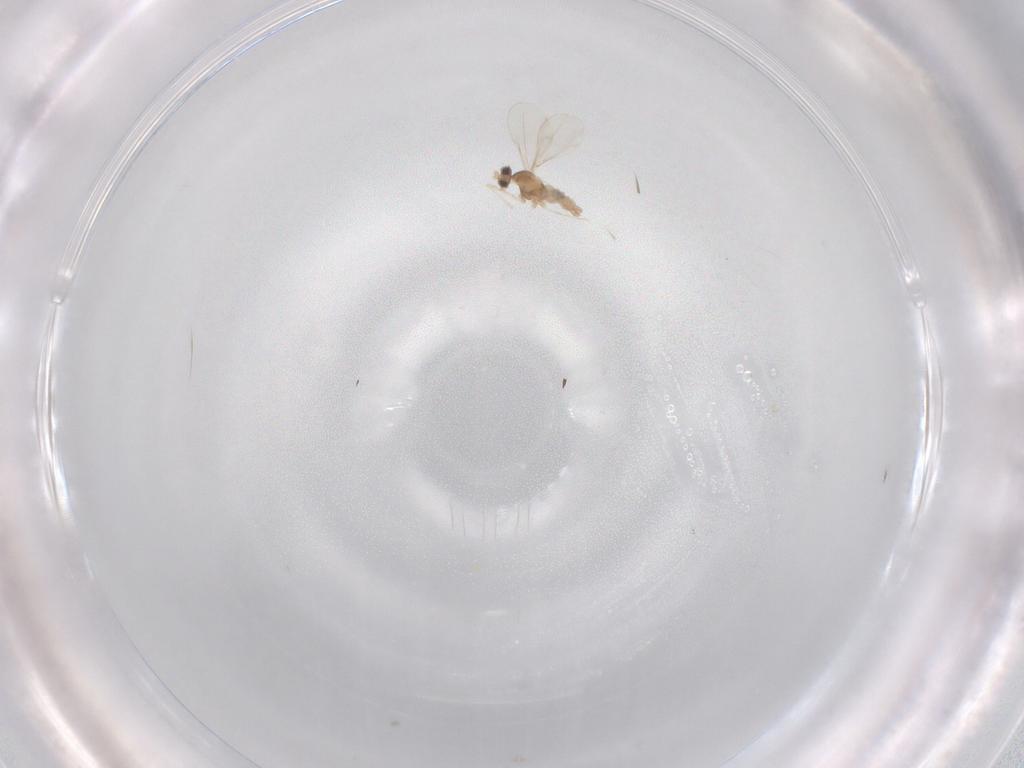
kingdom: Animalia
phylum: Arthropoda
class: Insecta
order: Diptera
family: Cecidomyiidae
